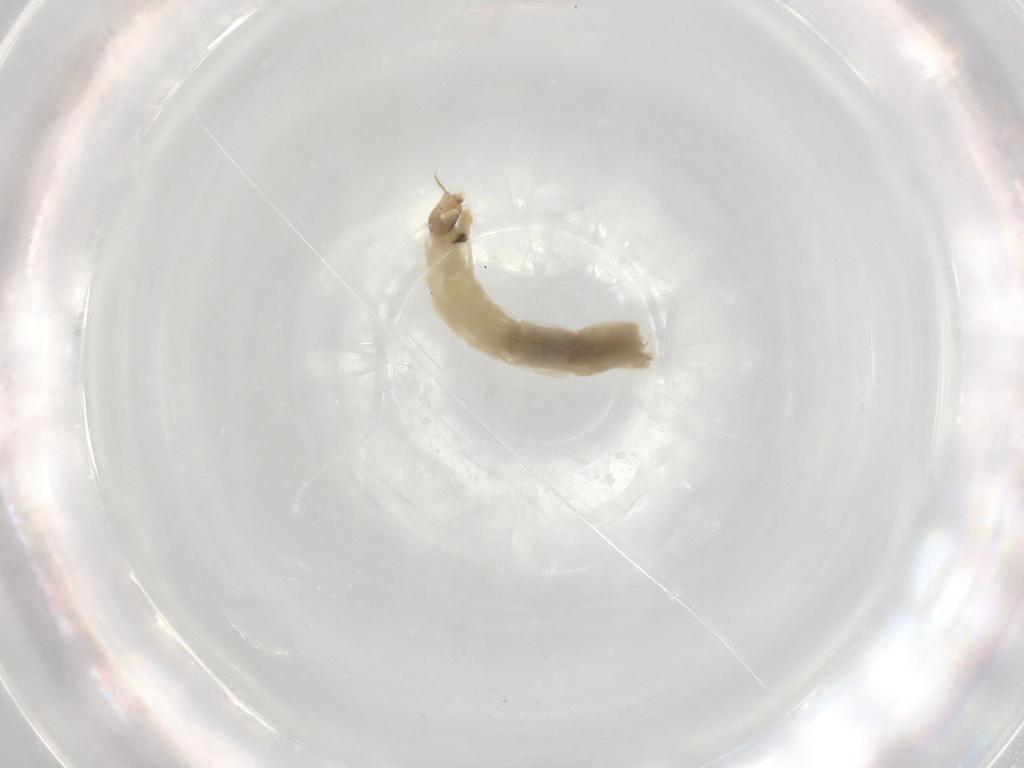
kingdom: Animalia
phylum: Arthropoda
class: Insecta
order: Diptera
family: Chironomidae
